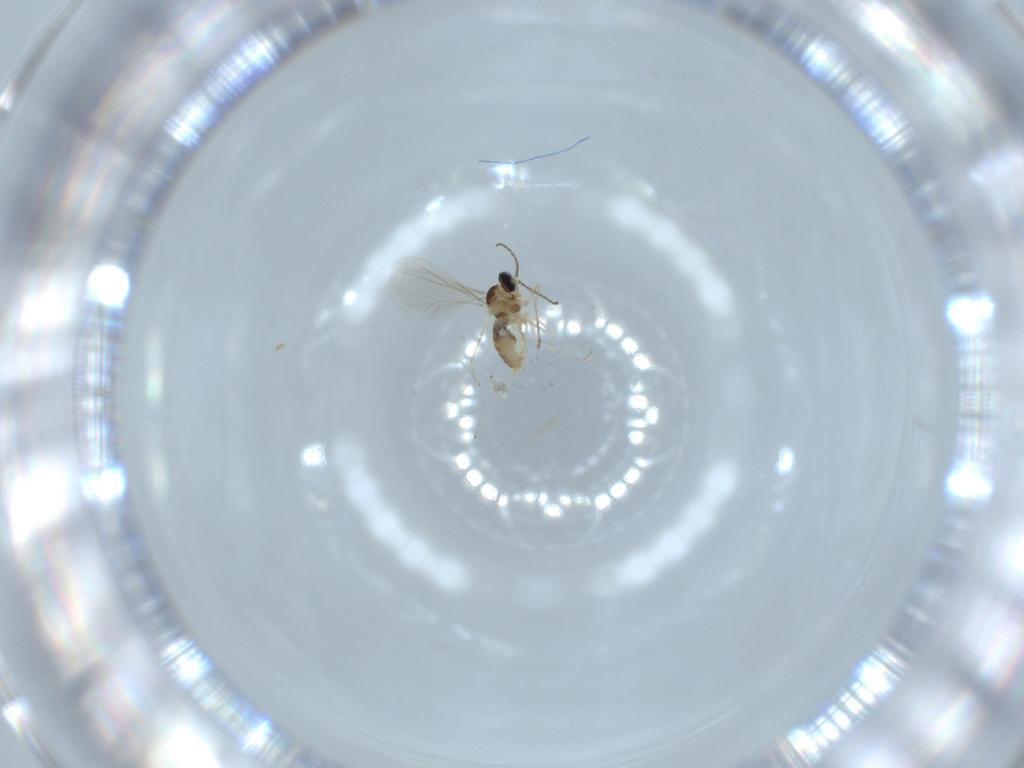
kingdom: Animalia
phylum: Arthropoda
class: Insecta
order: Diptera
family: Cecidomyiidae
